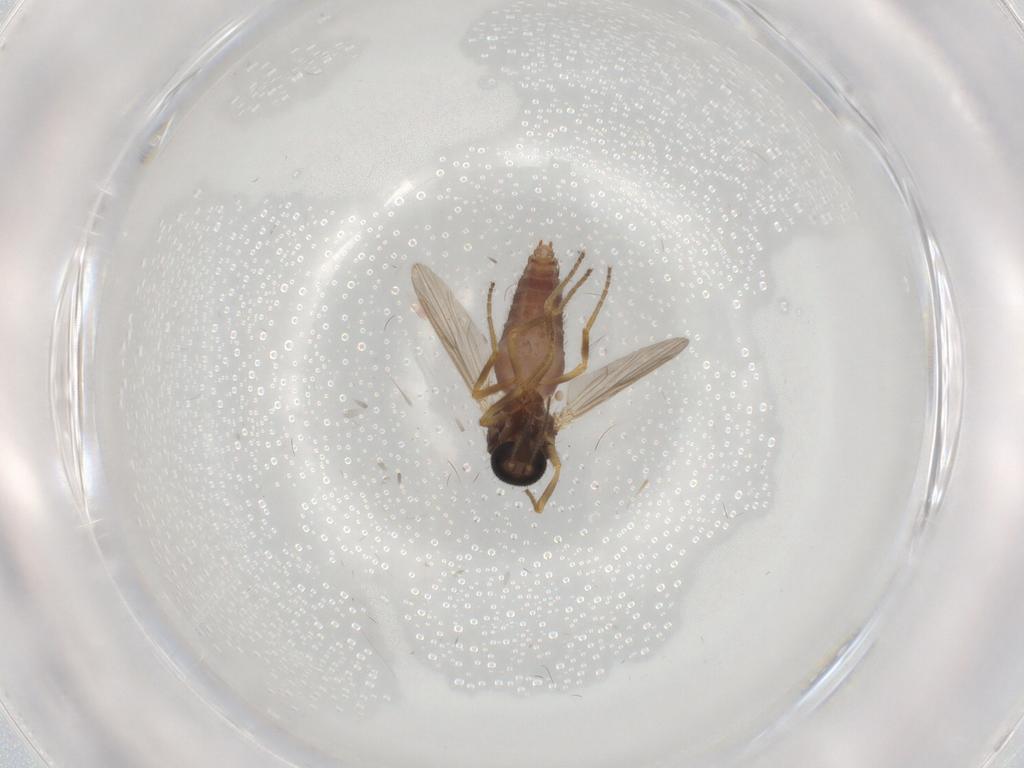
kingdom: Animalia
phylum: Arthropoda
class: Insecta
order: Diptera
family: Ceratopogonidae
